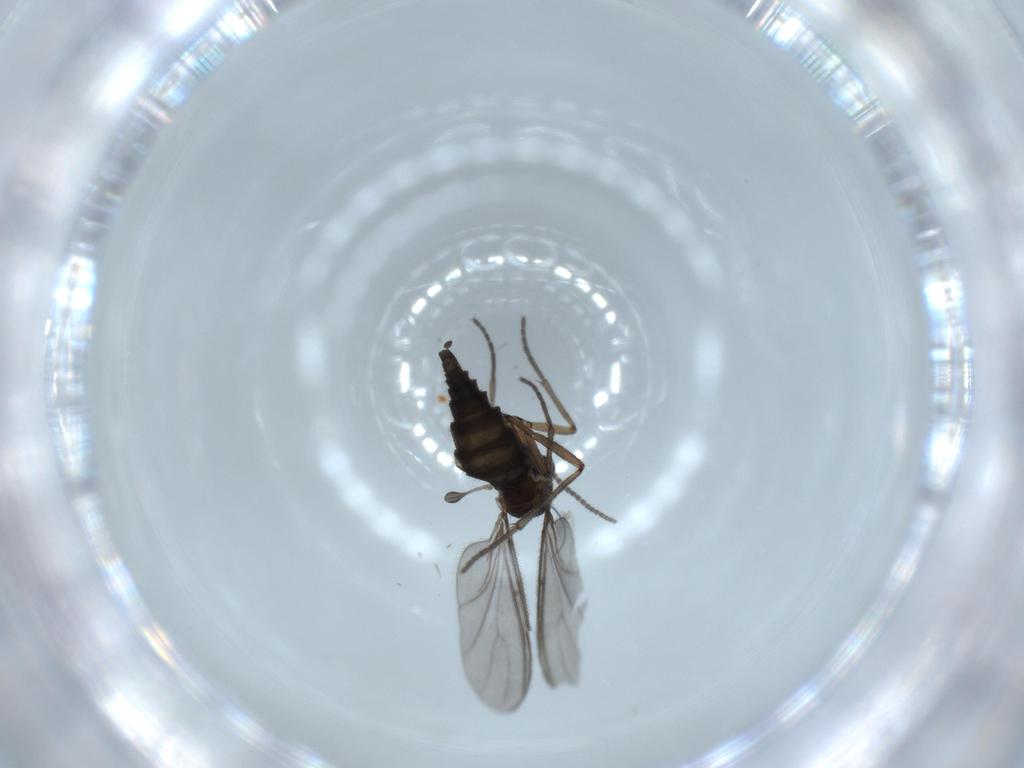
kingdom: Animalia
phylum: Arthropoda
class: Insecta
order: Diptera
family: Sciaridae
